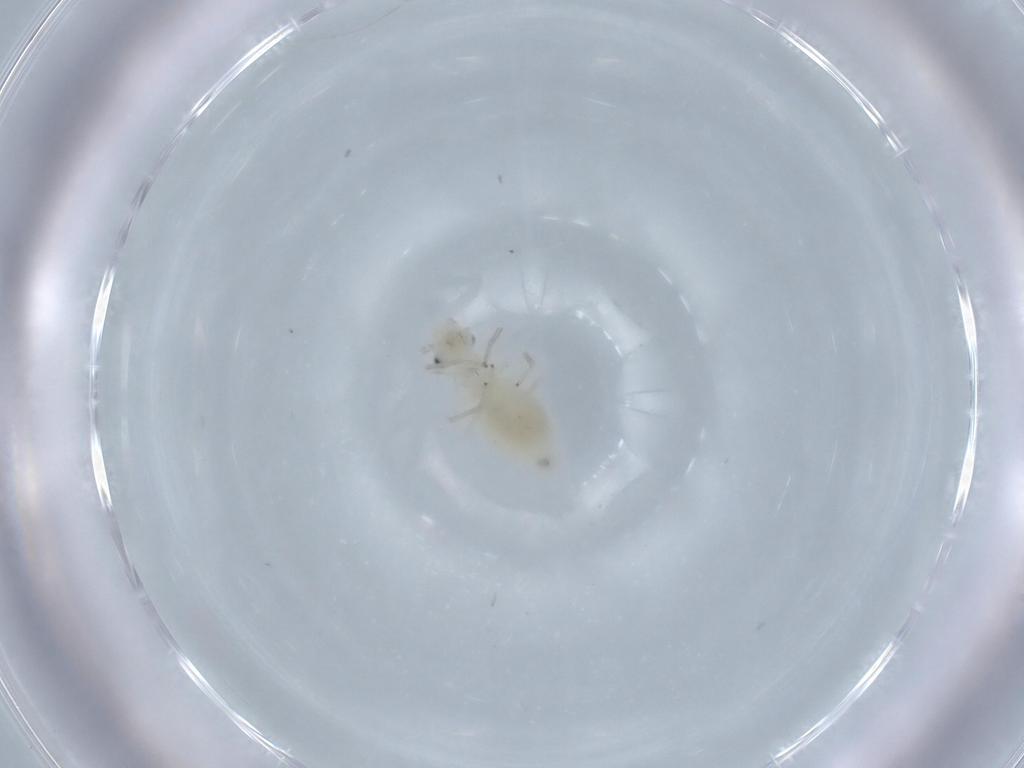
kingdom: Animalia
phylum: Arthropoda
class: Insecta
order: Psocodea
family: Caeciliusidae
